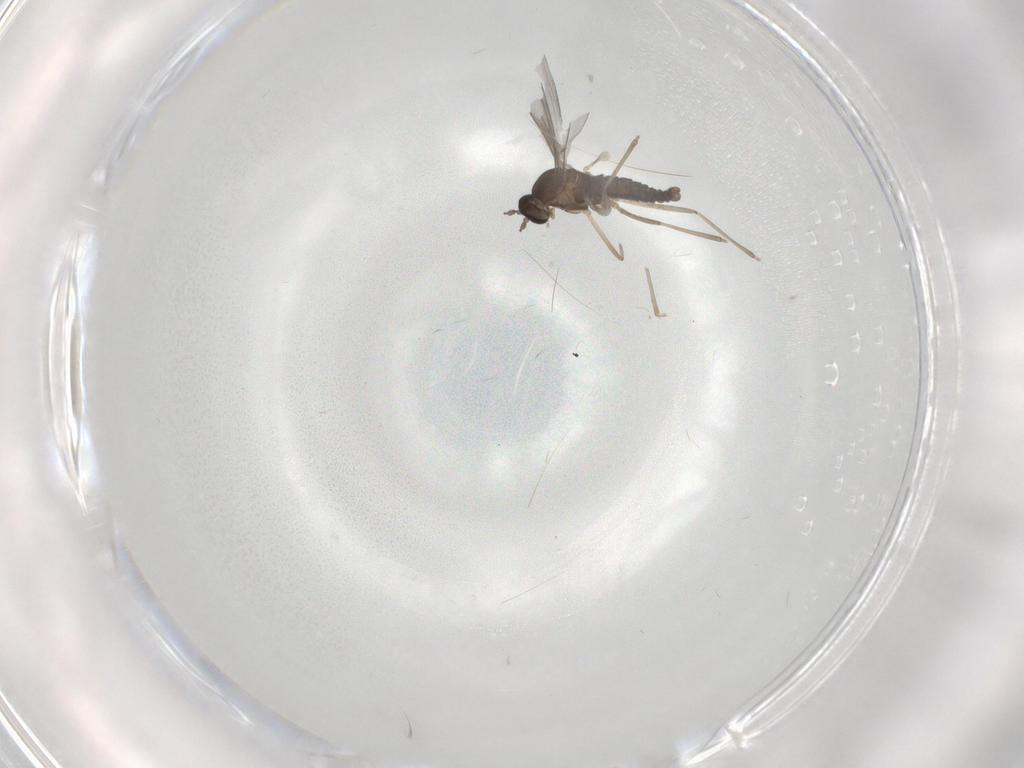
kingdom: Animalia
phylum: Arthropoda
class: Insecta
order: Diptera
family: Cecidomyiidae
